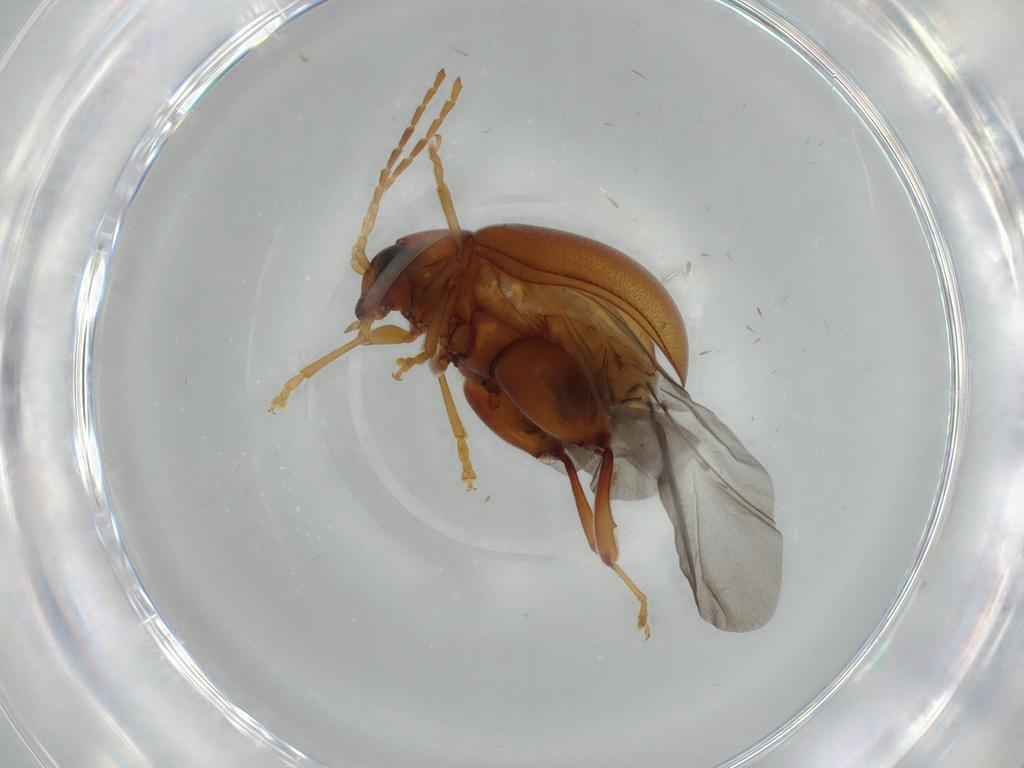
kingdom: Animalia
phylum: Arthropoda
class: Insecta
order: Coleoptera
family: Chrysomelidae
